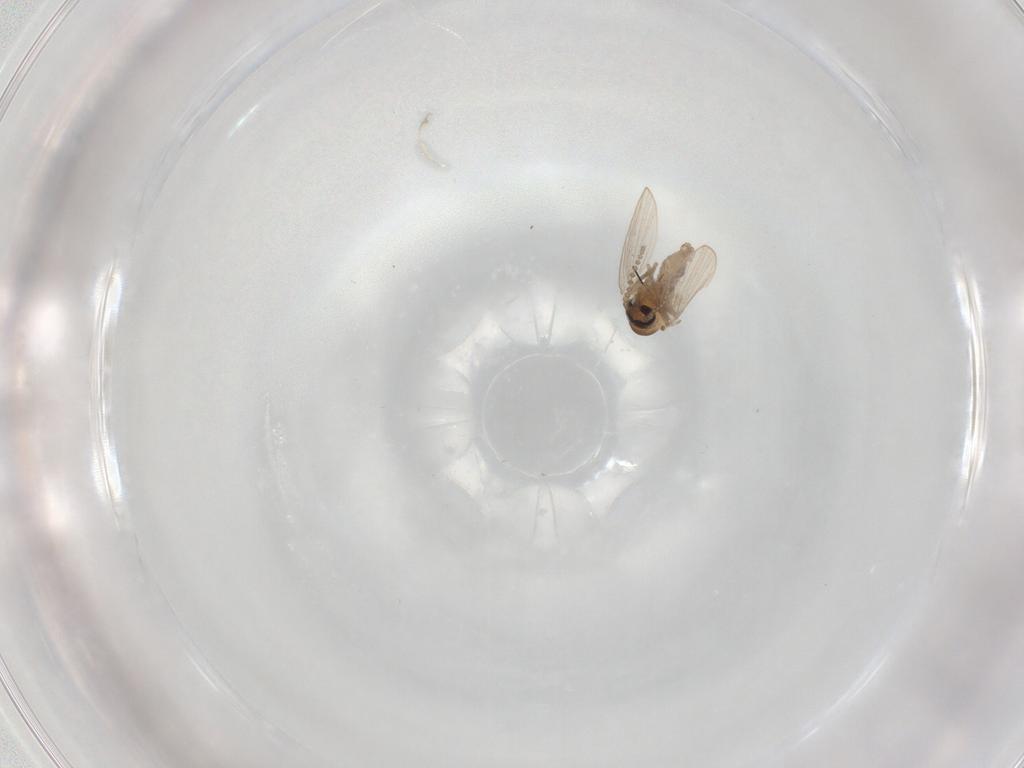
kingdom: Animalia
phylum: Arthropoda
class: Insecta
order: Diptera
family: Psychodidae
